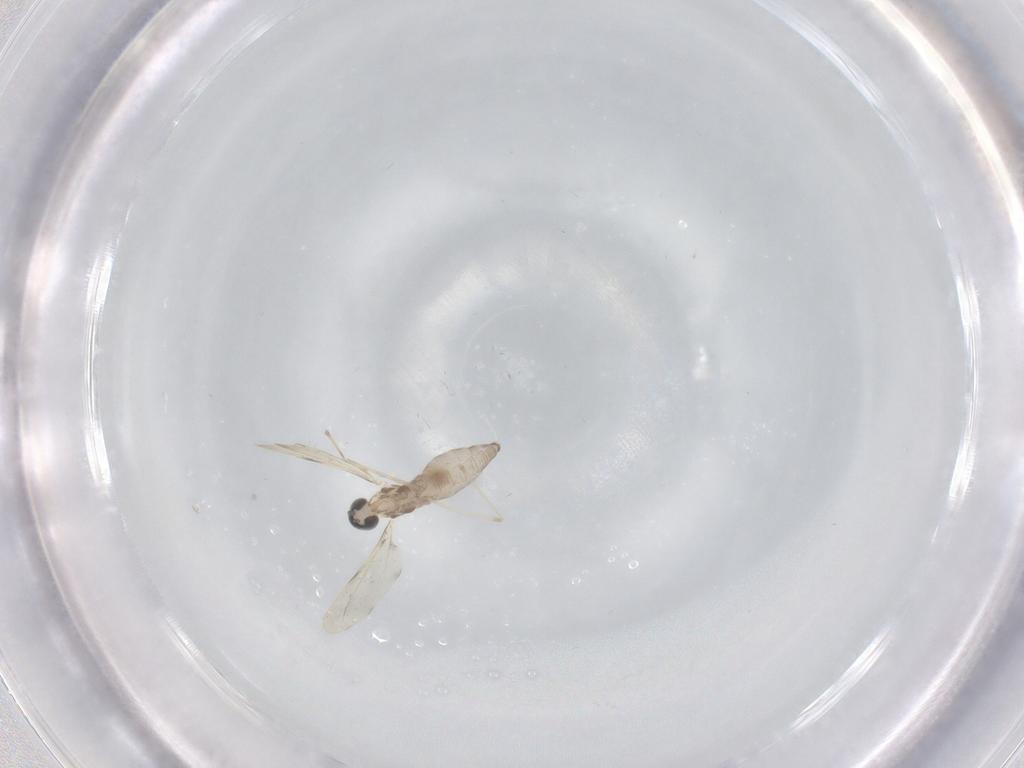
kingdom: Animalia
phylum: Arthropoda
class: Insecta
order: Diptera
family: Cecidomyiidae
